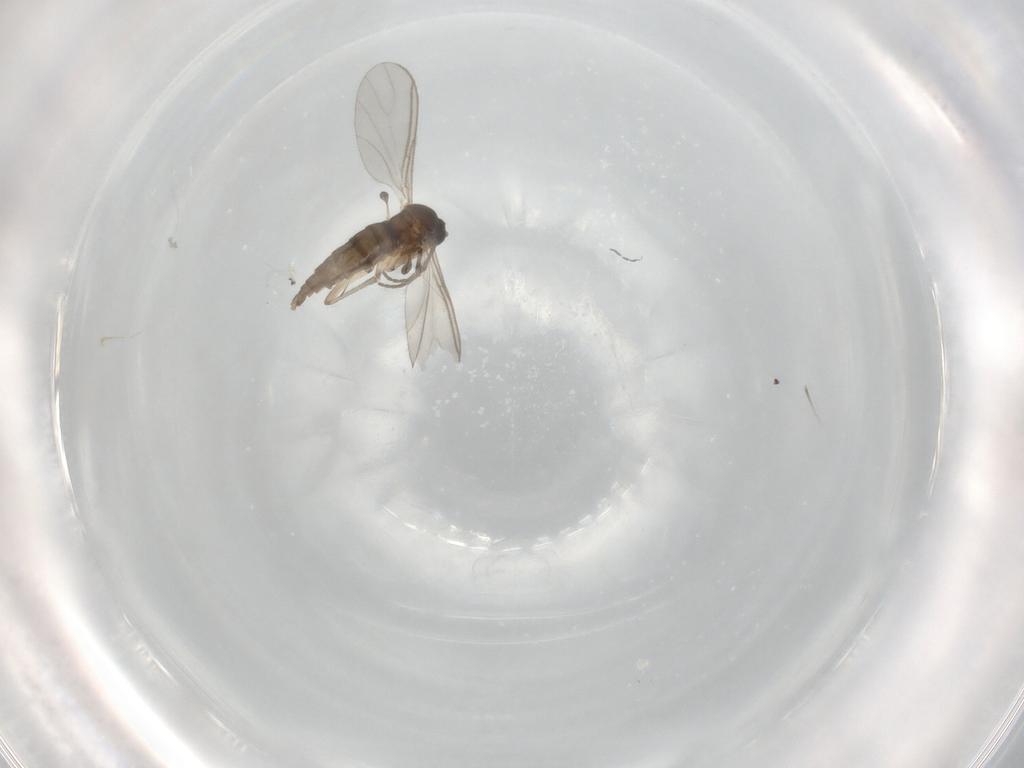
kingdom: Animalia
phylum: Arthropoda
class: Insecta
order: Diptera
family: Sciaridae
